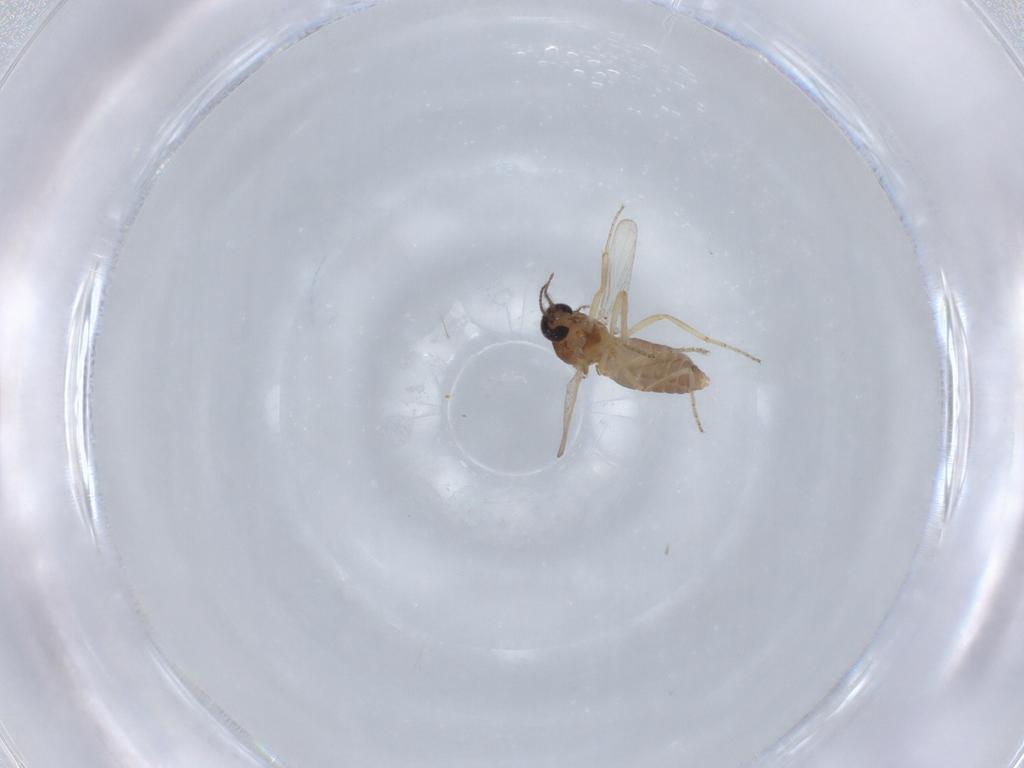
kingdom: Animalia
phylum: Arthropoda
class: Insecta
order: Diptera
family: Ceratopogonidae
